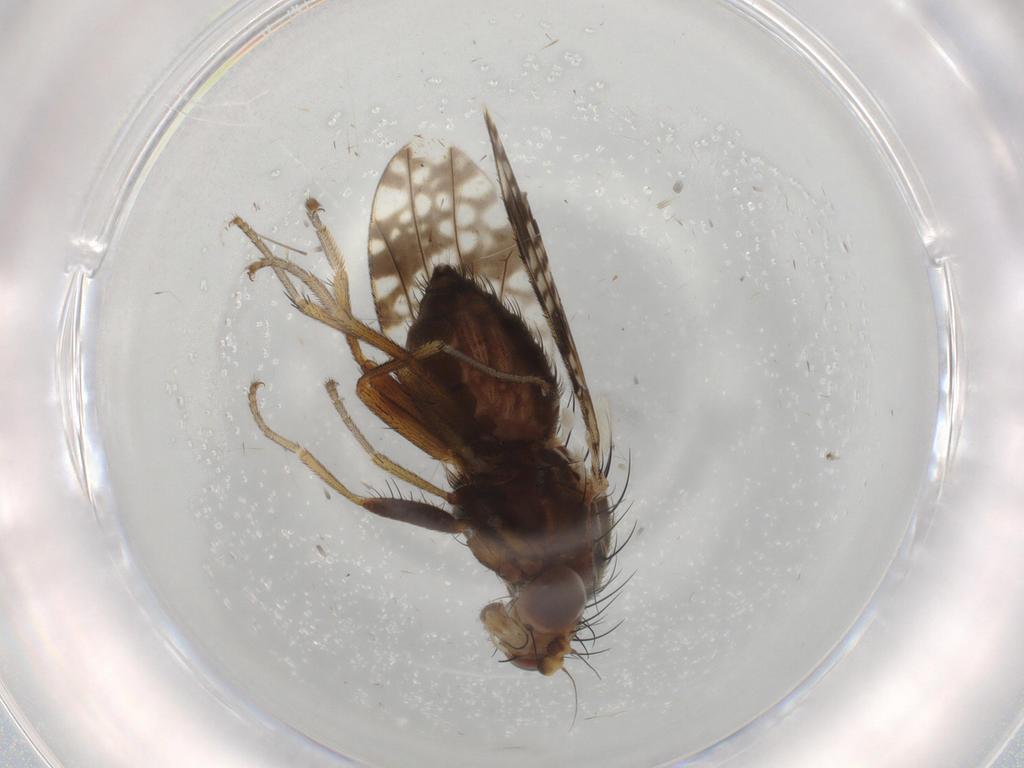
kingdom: Animalia
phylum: Arthropoda
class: Insecta
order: Diptera
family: Tephritidae
